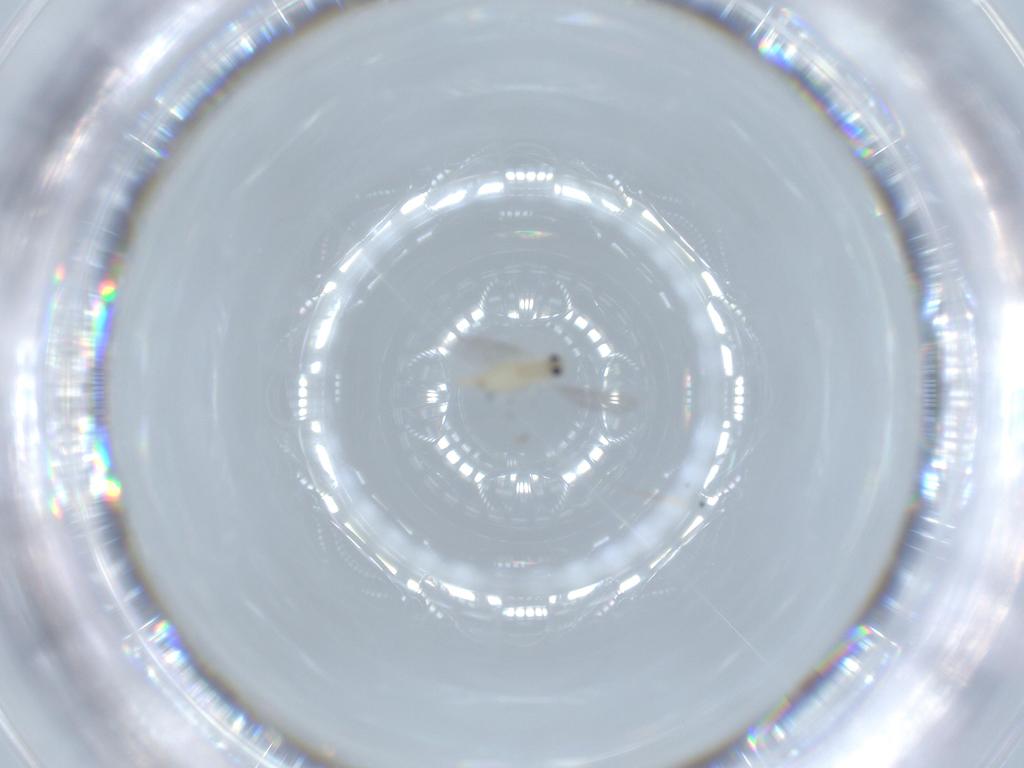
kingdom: Animalia
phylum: Arthropoda
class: Insecta
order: Diptera
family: Cecidomyiidae
